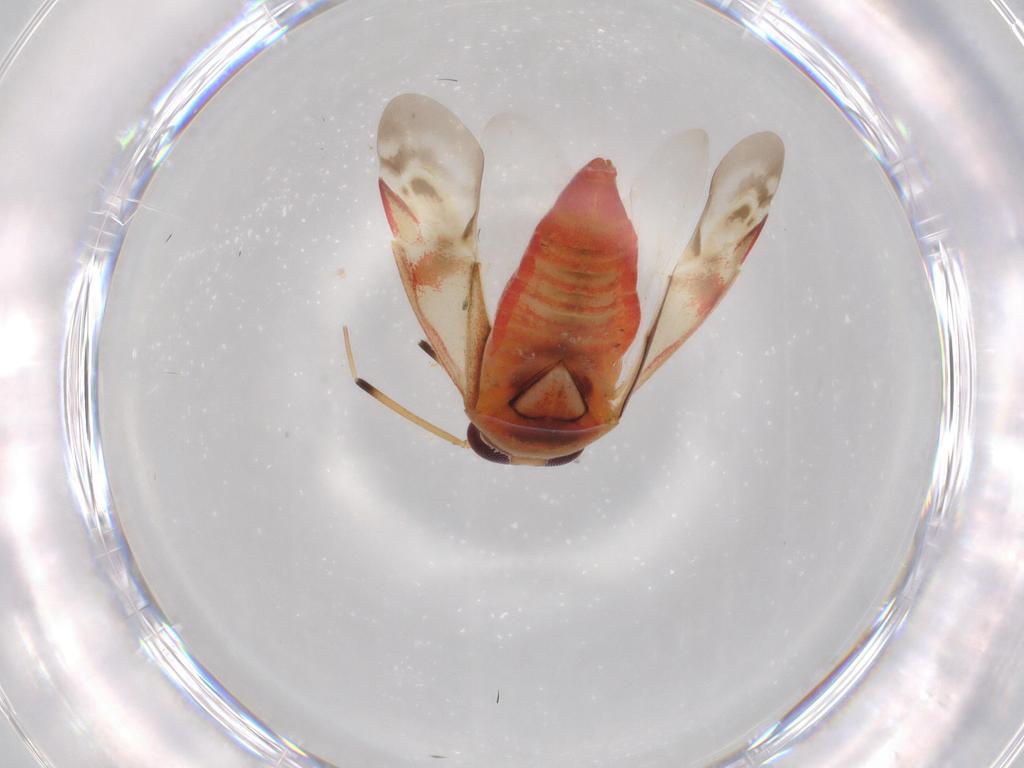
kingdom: Animalia
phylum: Arthropoda
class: Insecta
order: Hemiptera
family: Miridae
